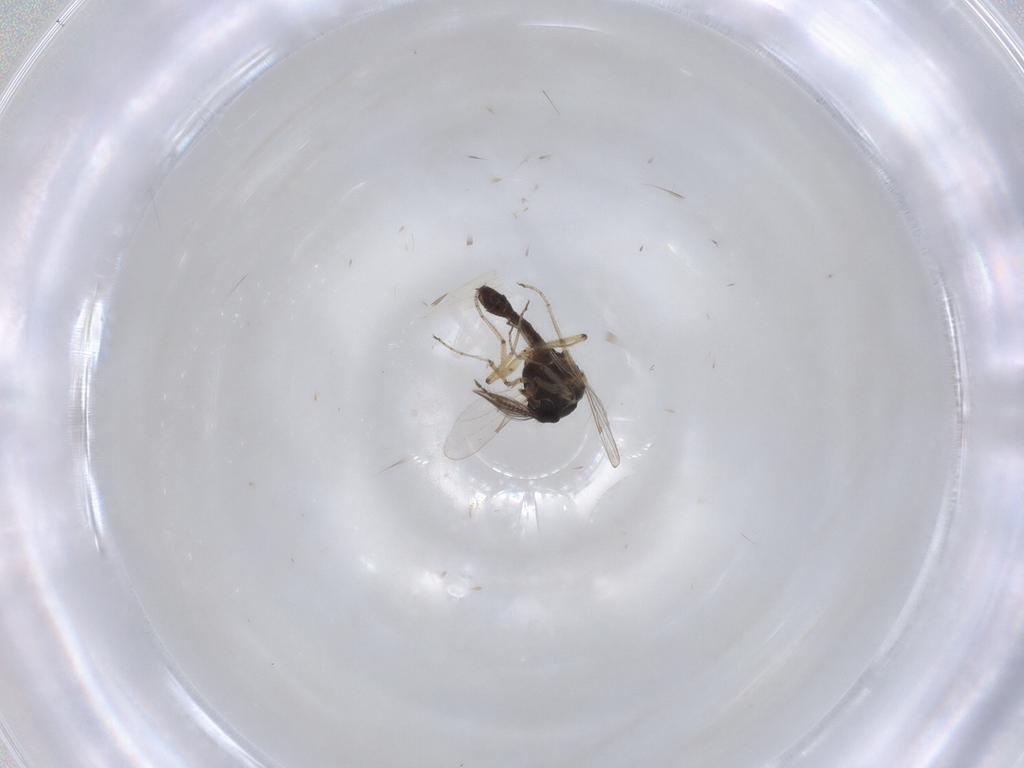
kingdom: Animalia
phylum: Arthropoda
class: Insecta
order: Diptera
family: Ceratopogonidae
